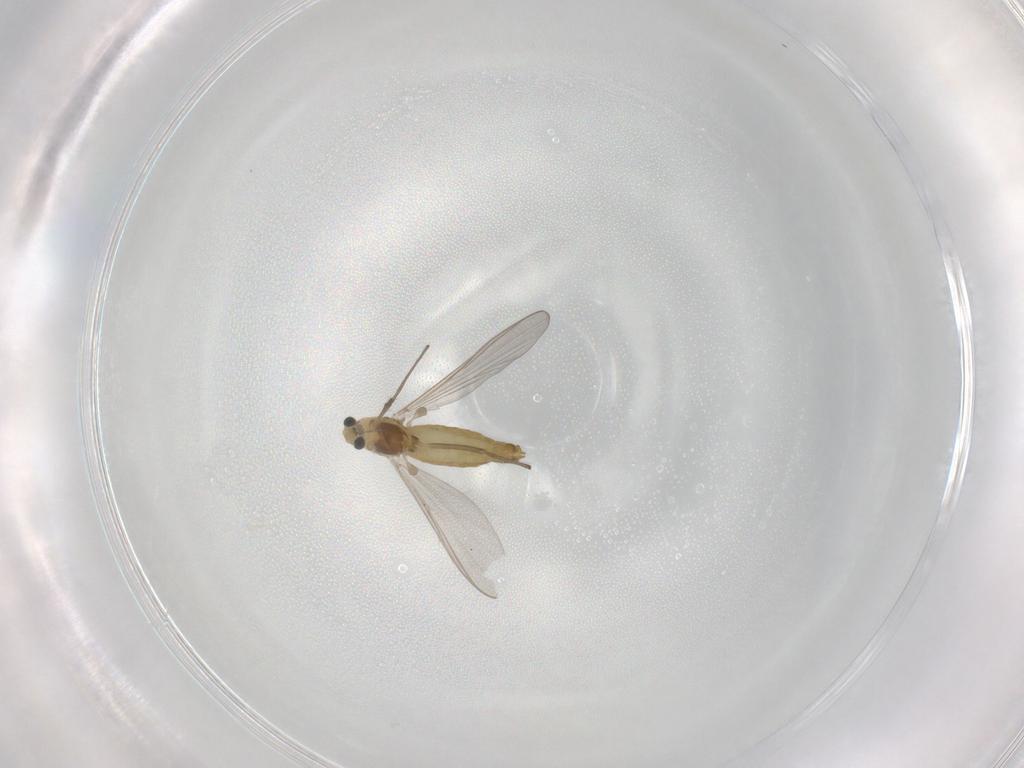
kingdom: Animalia
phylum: Arthropoda
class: Insecta
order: Diptera
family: Chironomidae
